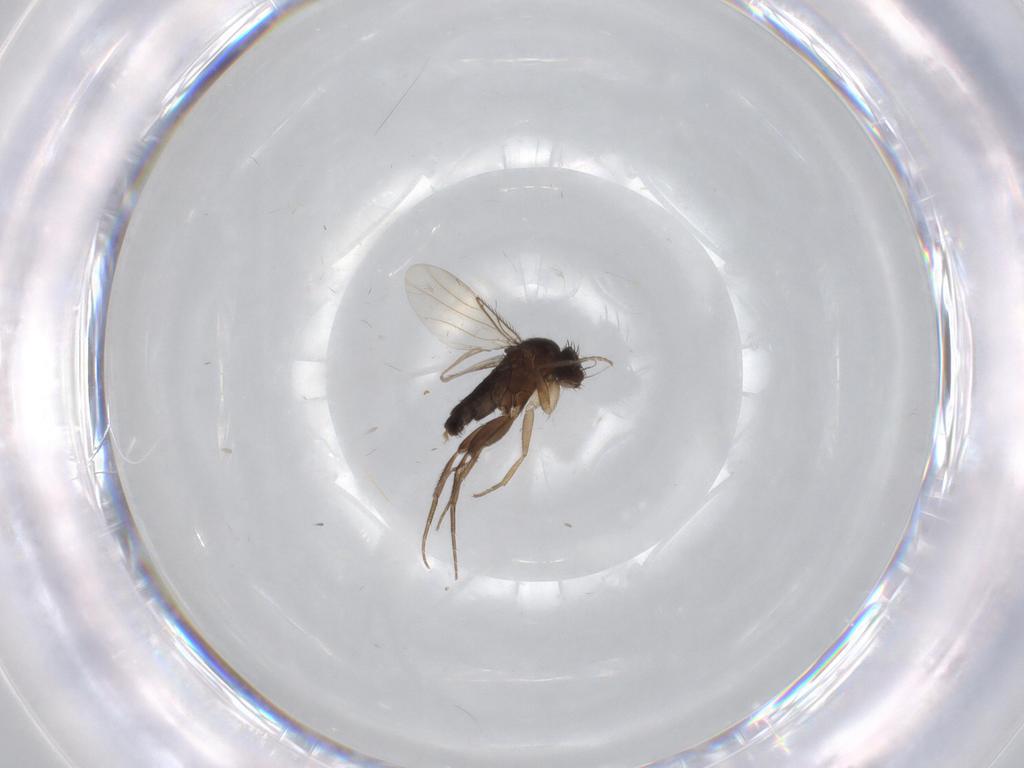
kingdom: Animalia
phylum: Arthropoda
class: Insecta
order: Diptera
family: Phoridae
